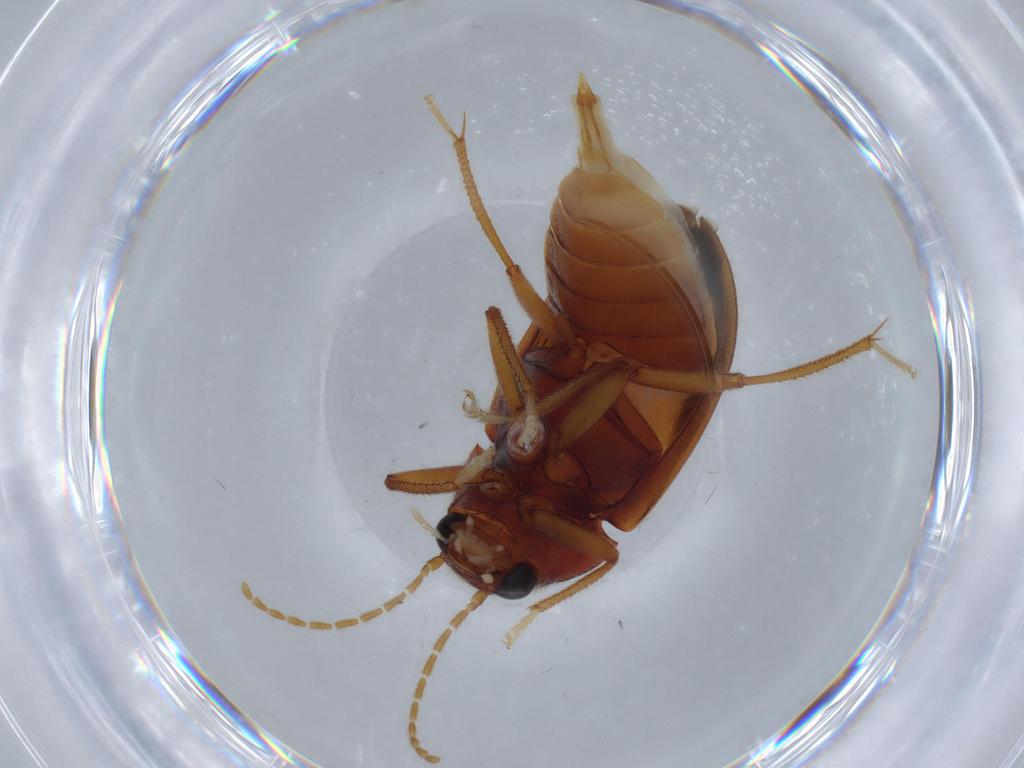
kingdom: Animalia
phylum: Arthropoda
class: Insecta
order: Coleoptera
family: Ptilodactylidae
